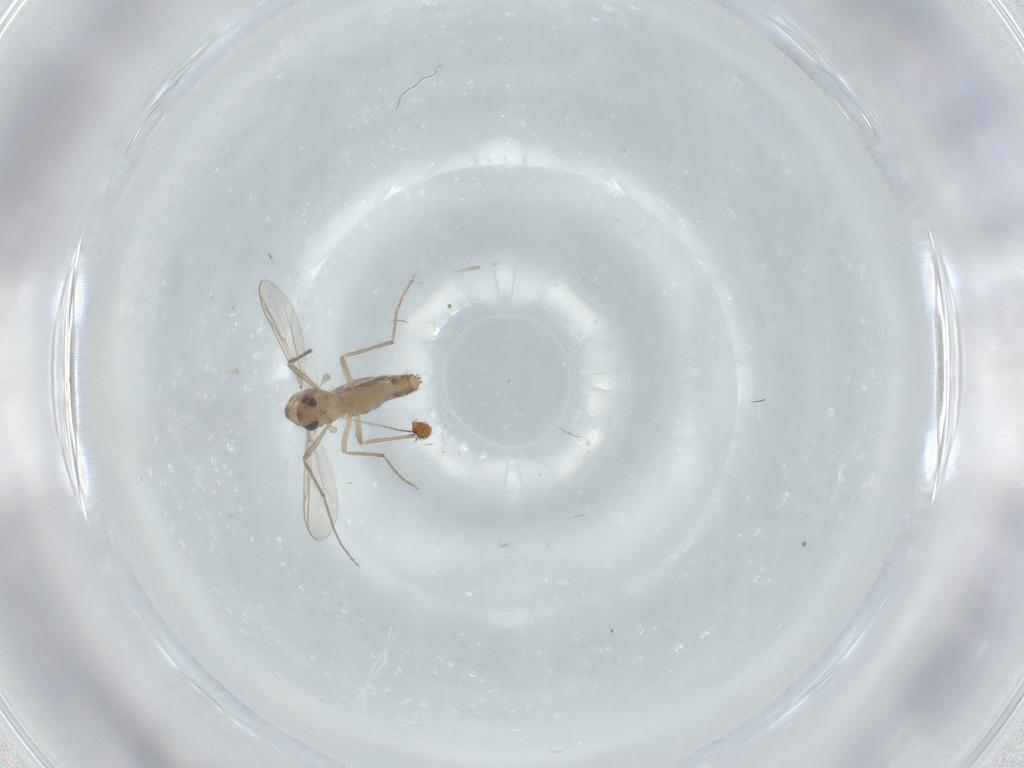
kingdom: Animalia
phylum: Arthropoda
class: Insecta
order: Diptera
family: Chironomidae
